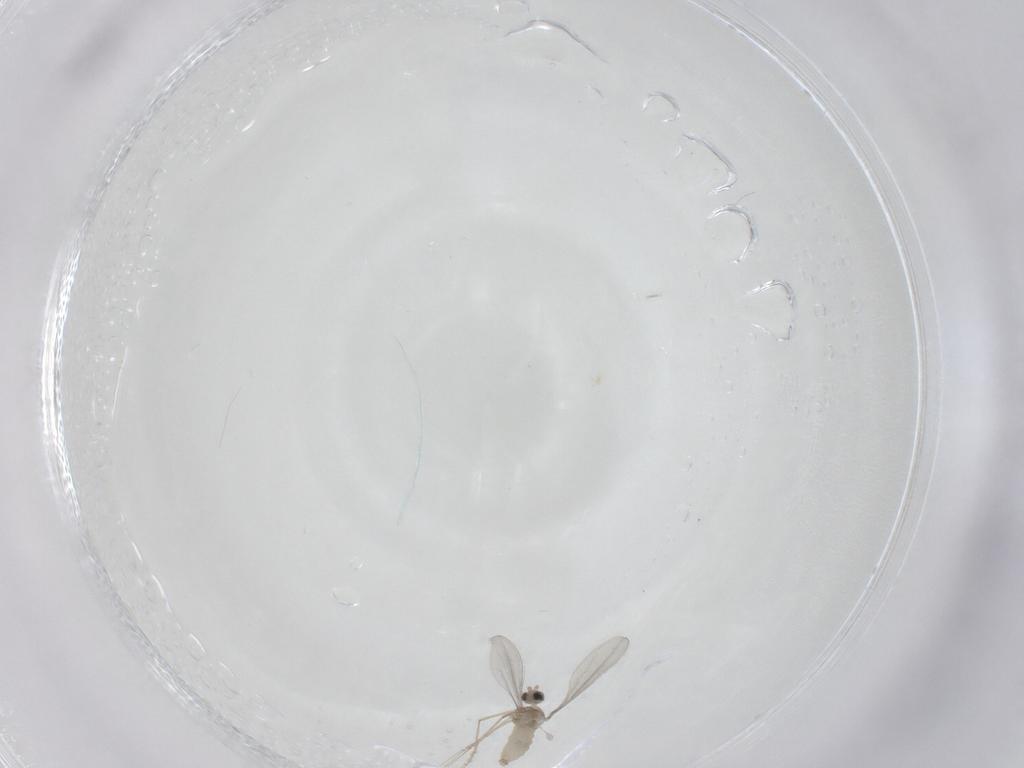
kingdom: Animalia
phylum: Arthropoda
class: Insecta
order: Diptera
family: Ceratopogonidae
